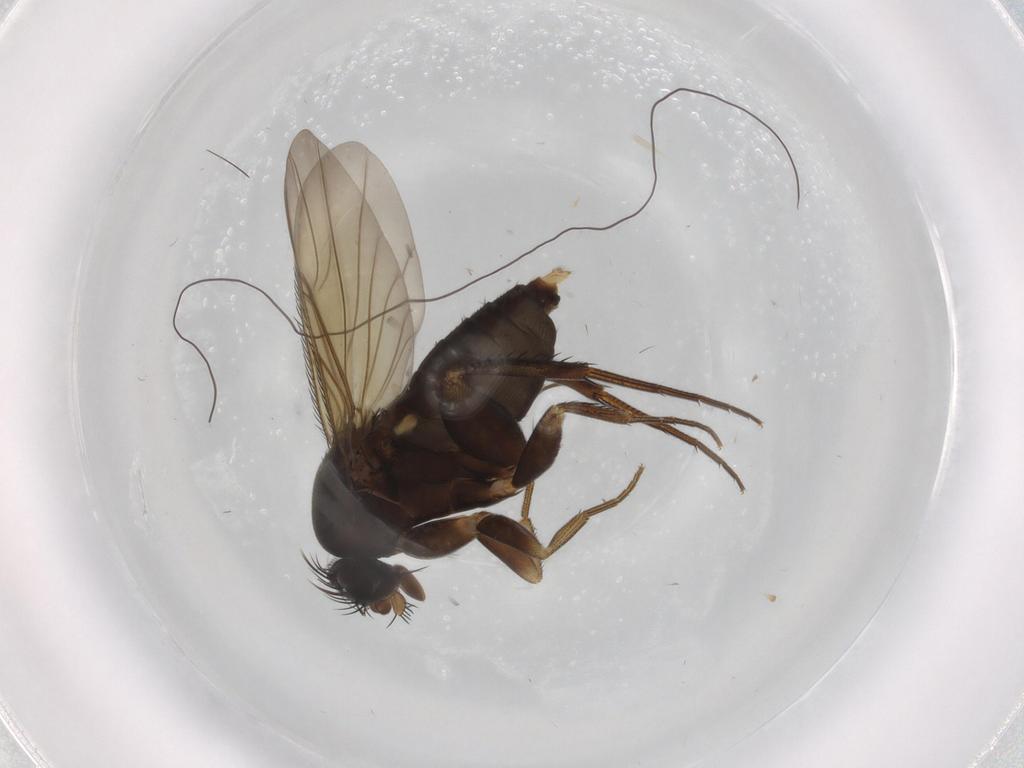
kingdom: Animalia
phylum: Arthropoda
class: Insecta
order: Diptera
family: Phoridae
